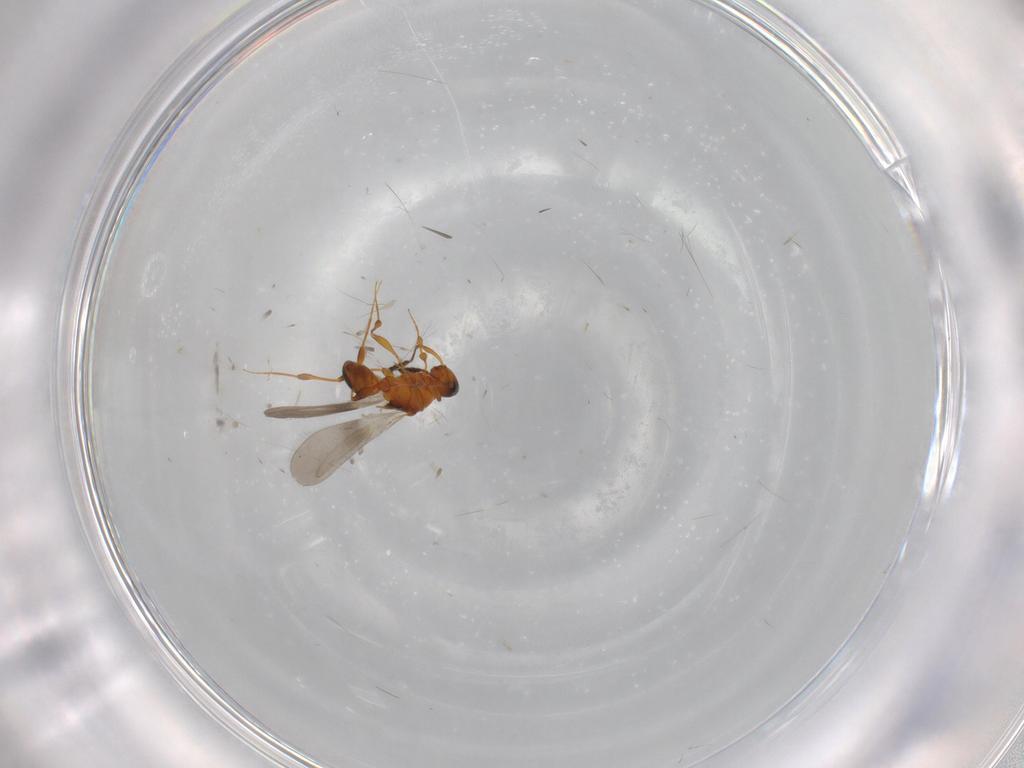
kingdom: Animalia
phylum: Arthropoda
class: Insecta
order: Hymenoptera
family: Platygastridae
